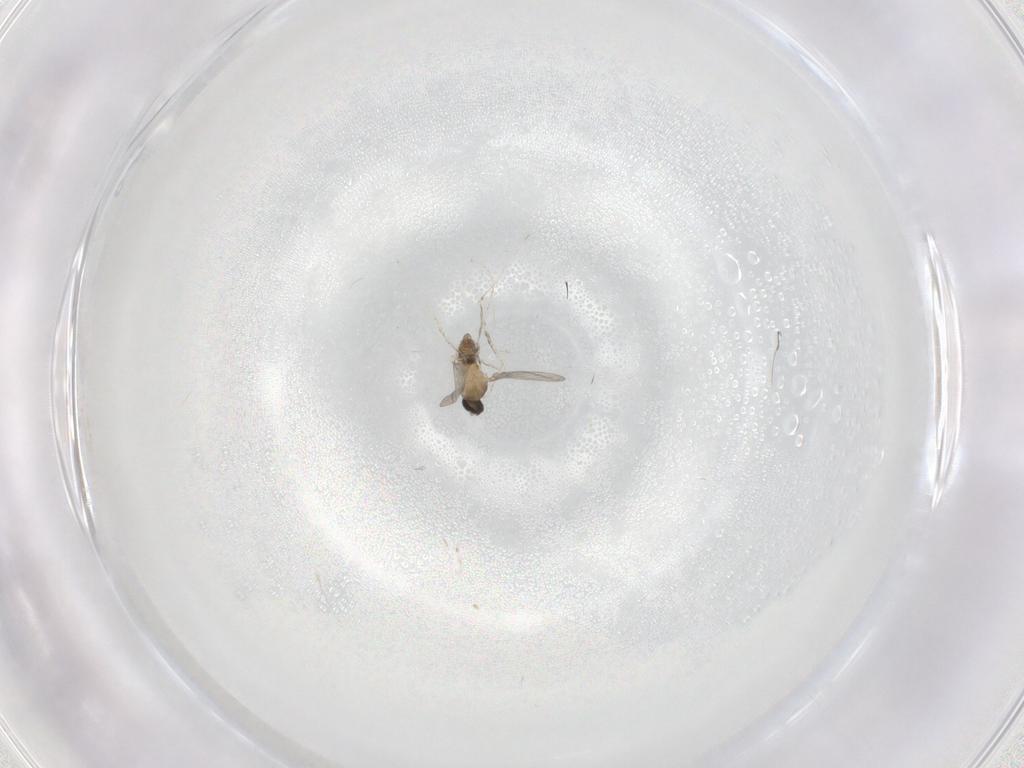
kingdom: Animalia
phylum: Arthropoda
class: Insecta
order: Diptera
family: Cecidomyiidae
